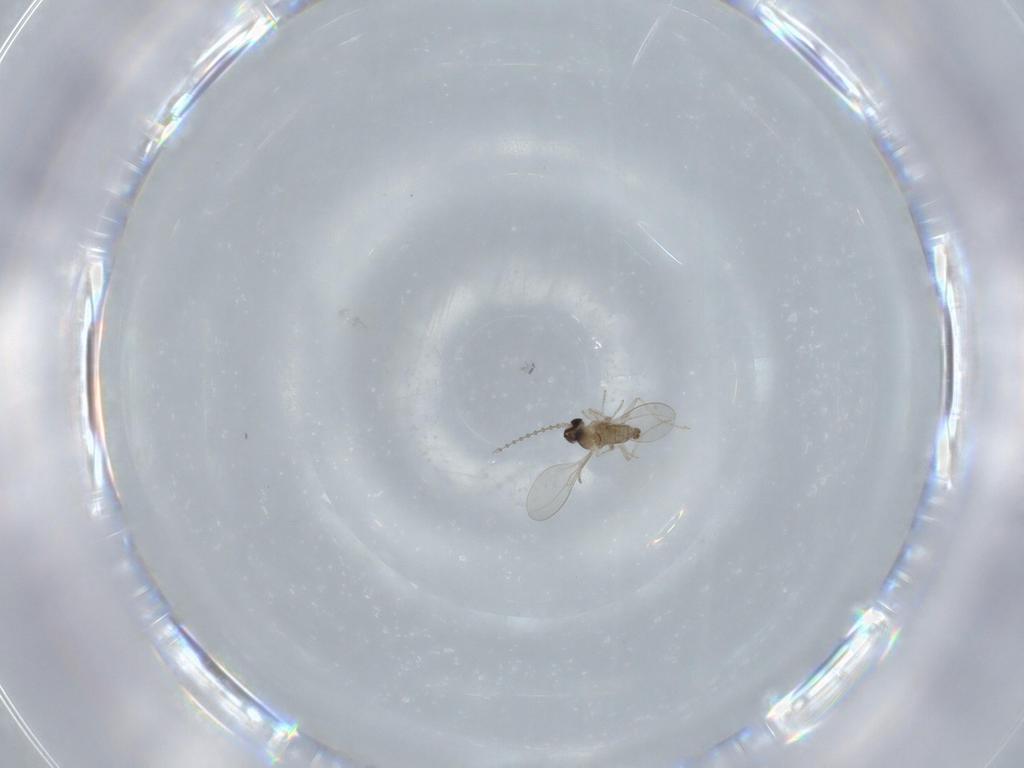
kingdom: Animalia
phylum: Arthropoda
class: Insecta
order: Diptera
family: Cecidomyiidae
